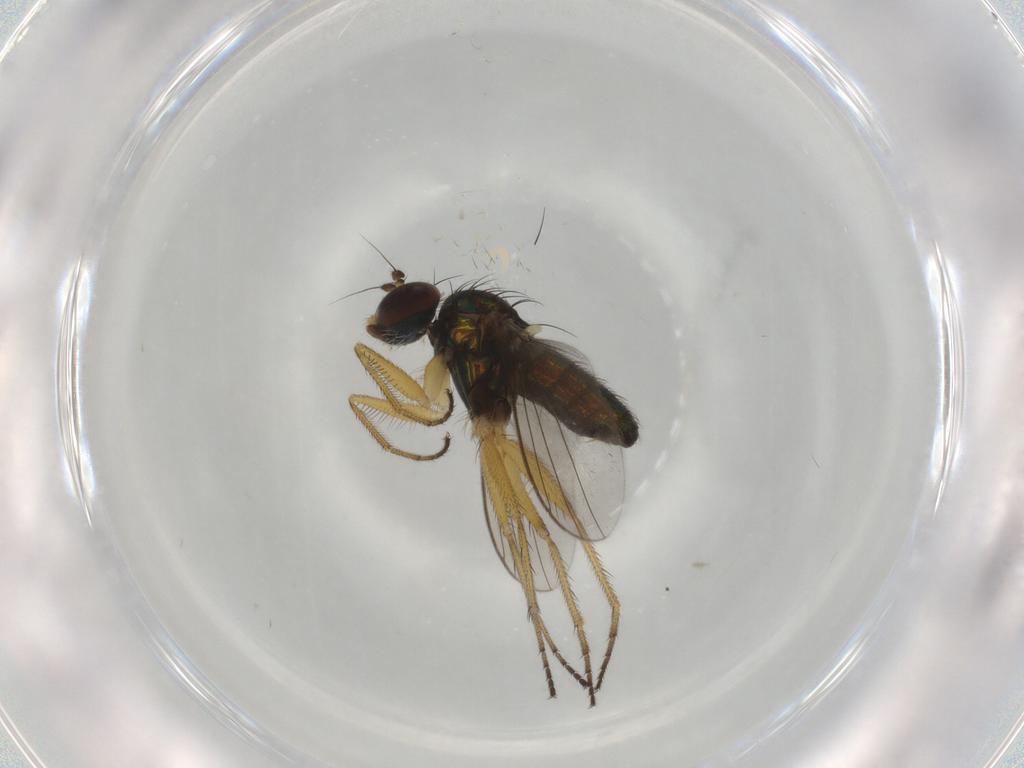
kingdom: Animalia
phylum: Arthropoda
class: Insecta
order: Diptera
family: Dolichopodidae
